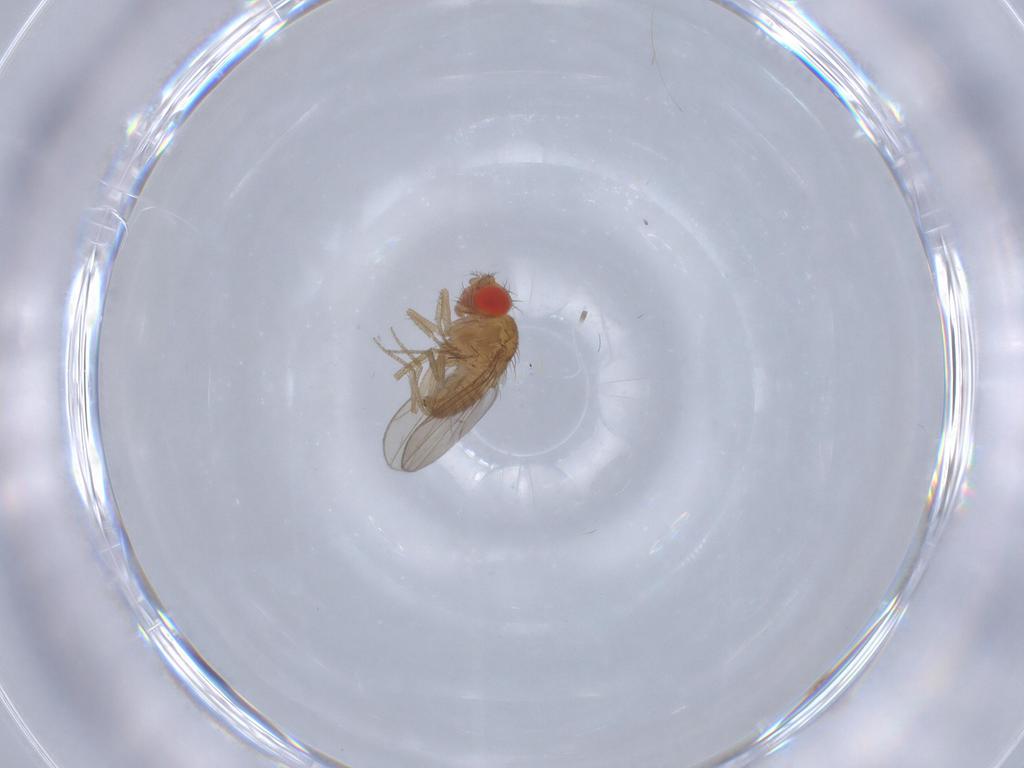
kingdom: Animalia
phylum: Arthropoda
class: Insecta
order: Diptera
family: Drosophilidae
